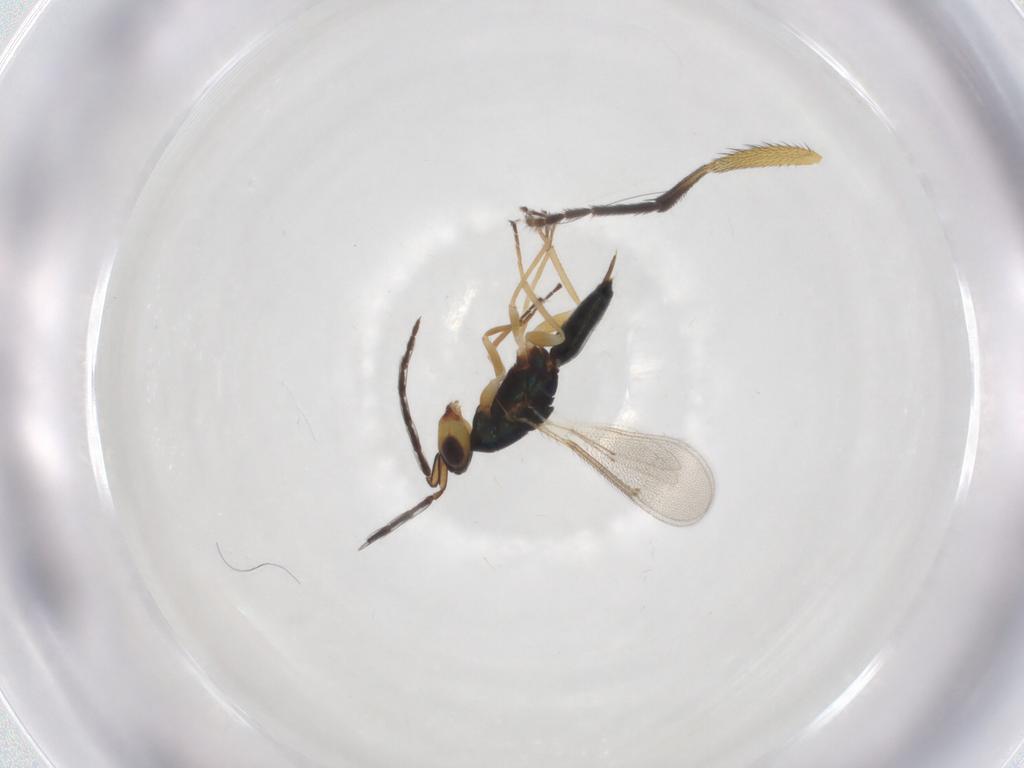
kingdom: Animalia
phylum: Arthropoda
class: Insecta
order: Hymenoptera
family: Eulophidae
